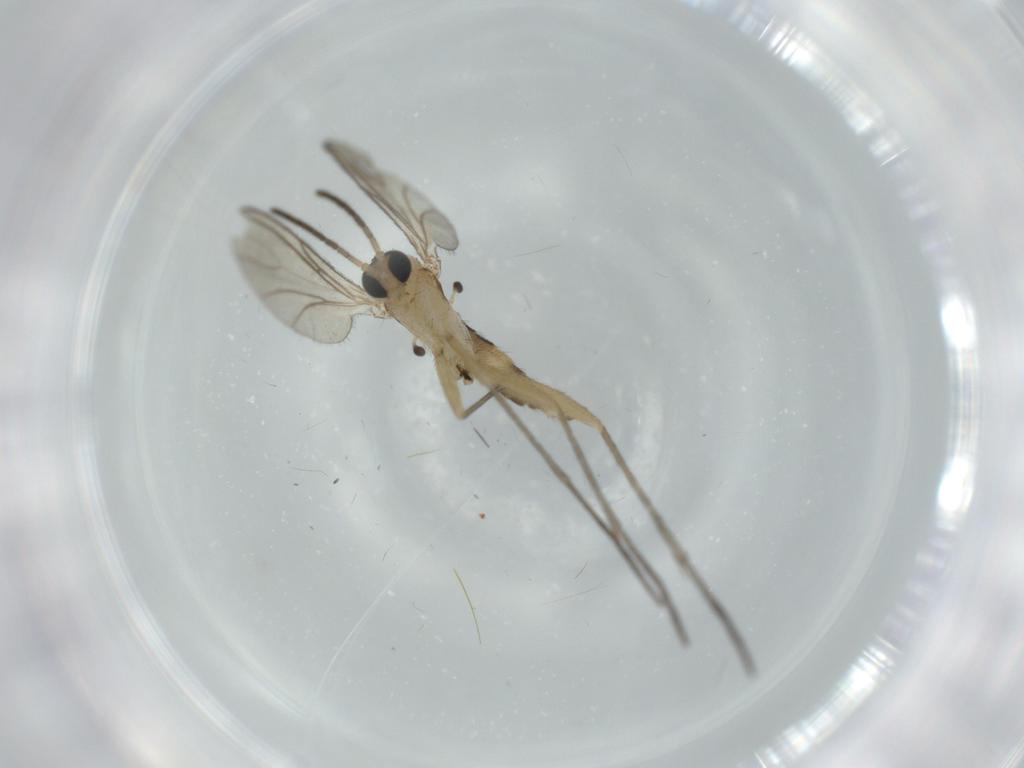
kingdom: Animalia
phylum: Arthropoda
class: Insecta
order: Diptera
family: Sciaridae
